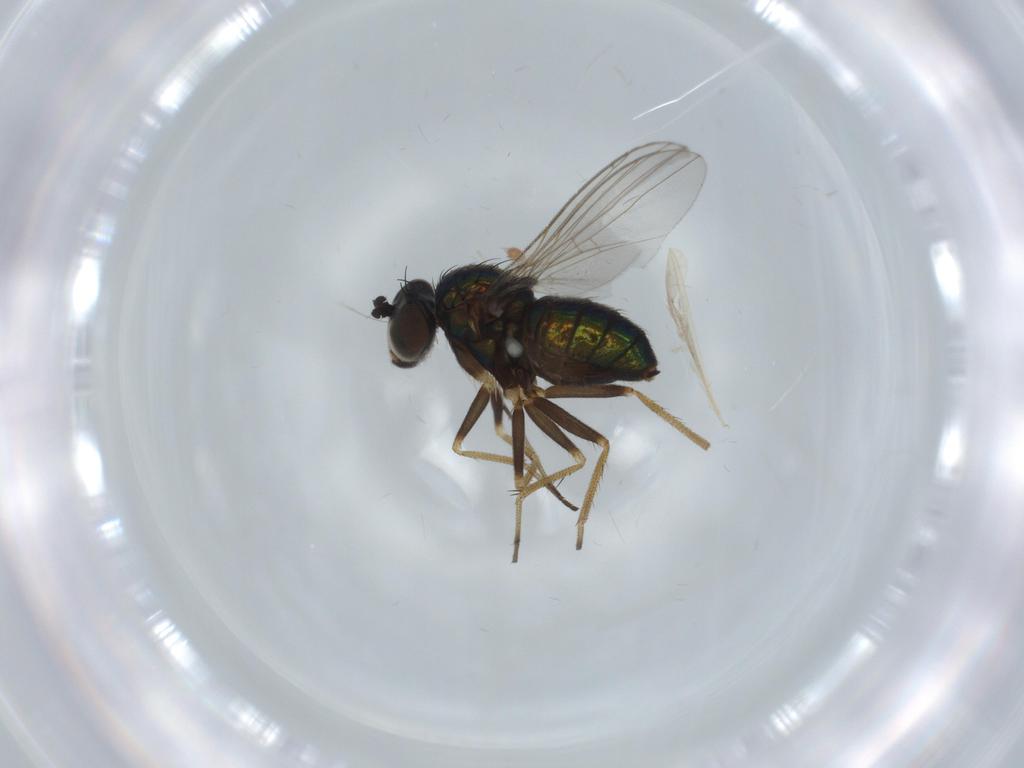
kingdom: Animalia
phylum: Arthropoda
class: Insecta
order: Diptera
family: Dolichopodidae
